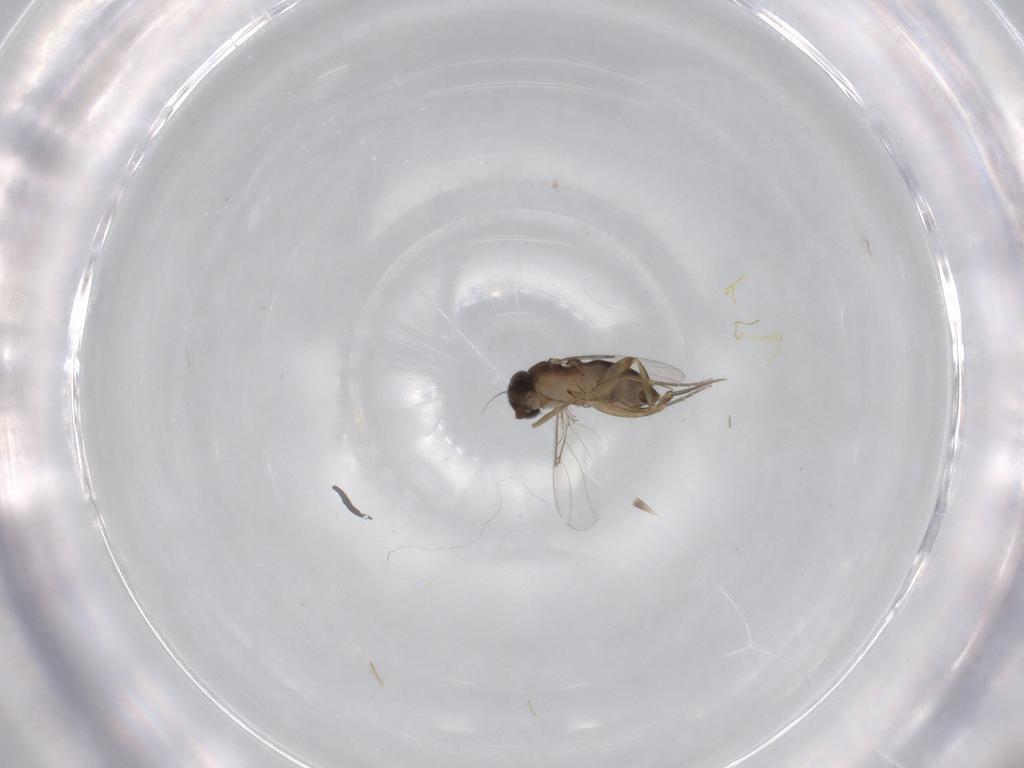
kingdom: Animalia
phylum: Arthropoda
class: Insecta
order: Diptera
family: Phoridae
